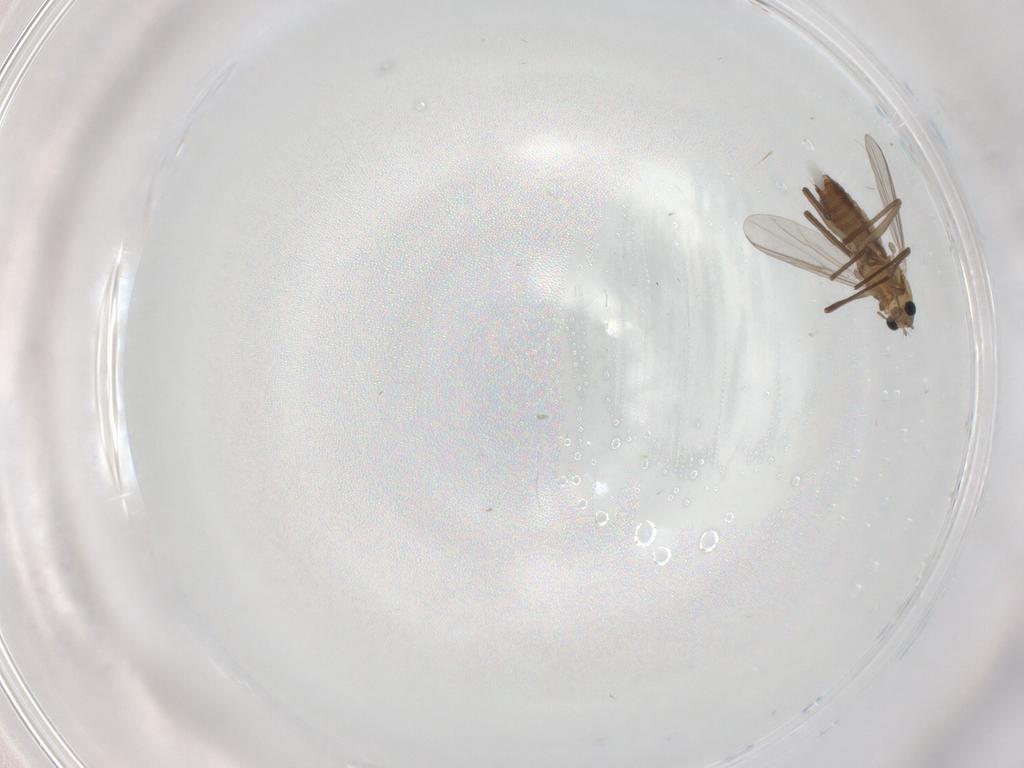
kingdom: Animalia
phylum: Arthropoda
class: Insecta
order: Diptera
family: Chironomidae
